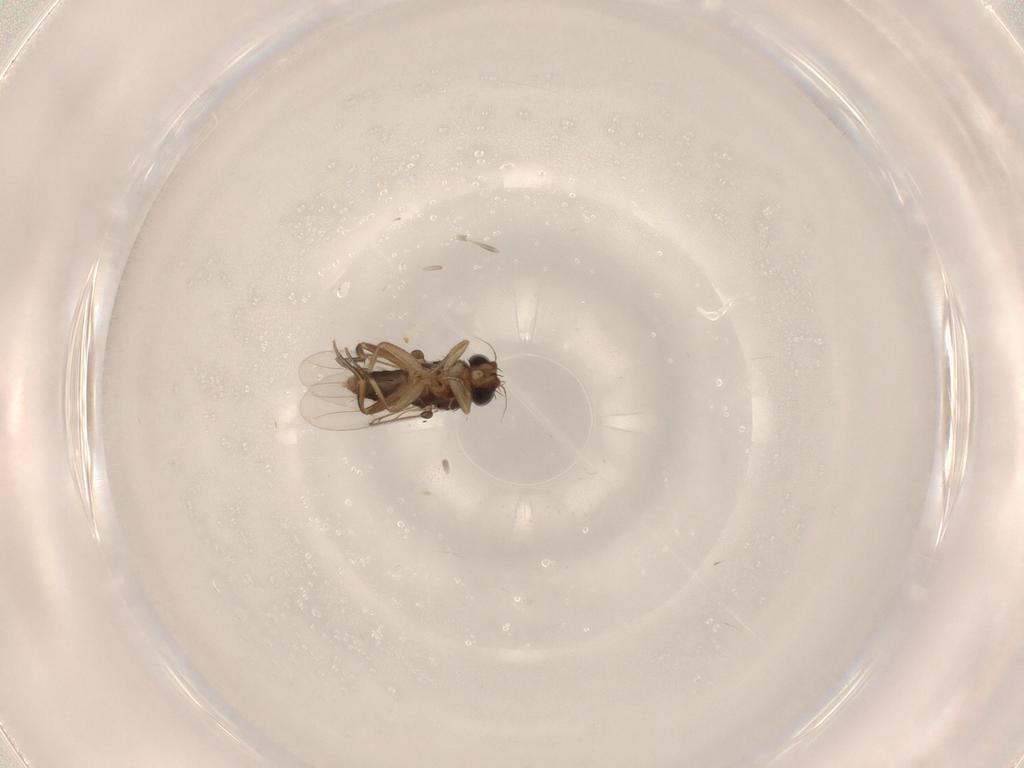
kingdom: Animalia
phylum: Arthropoda
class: Insecta
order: Diptera
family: Phoridae
